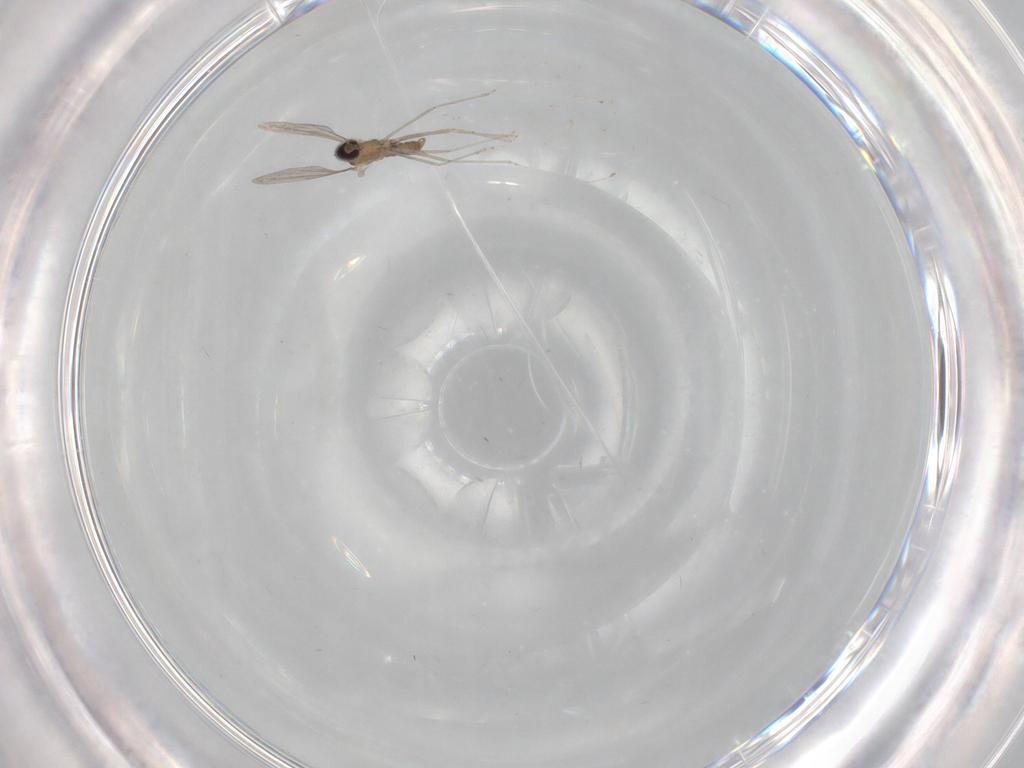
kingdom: Animalia
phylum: Arthropoda
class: Insecta
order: Diptera
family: Cecidomyiidae
